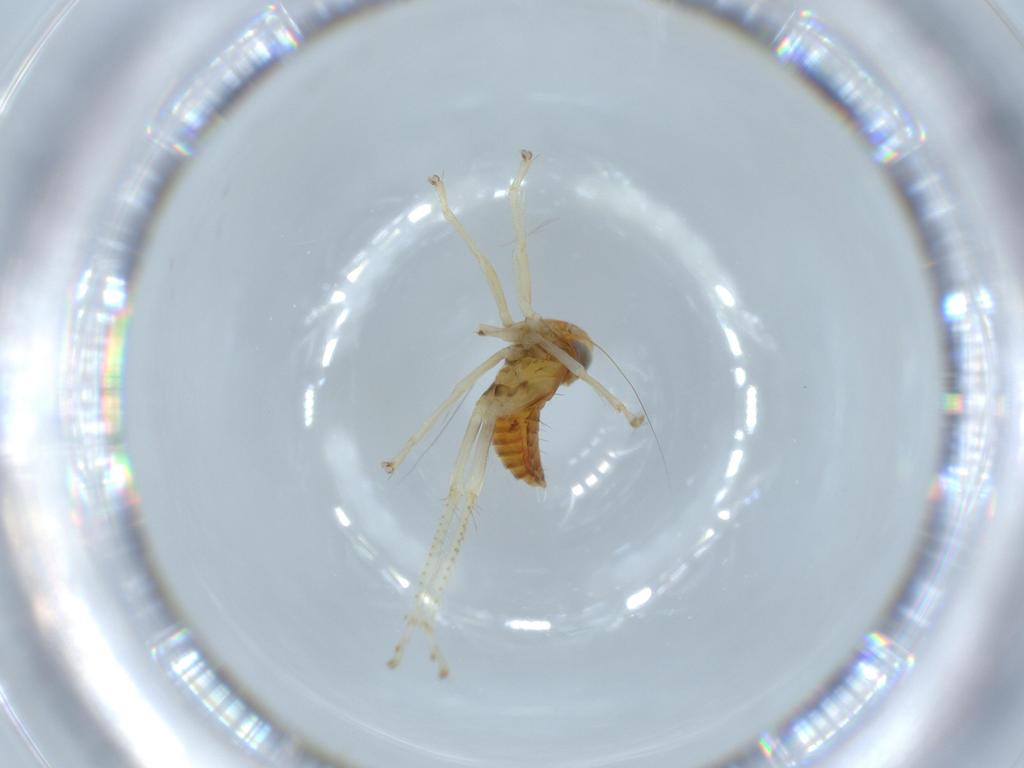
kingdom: Animalia
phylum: Arthropoda
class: Insecta
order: Hemiptera
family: Cicadellidae
